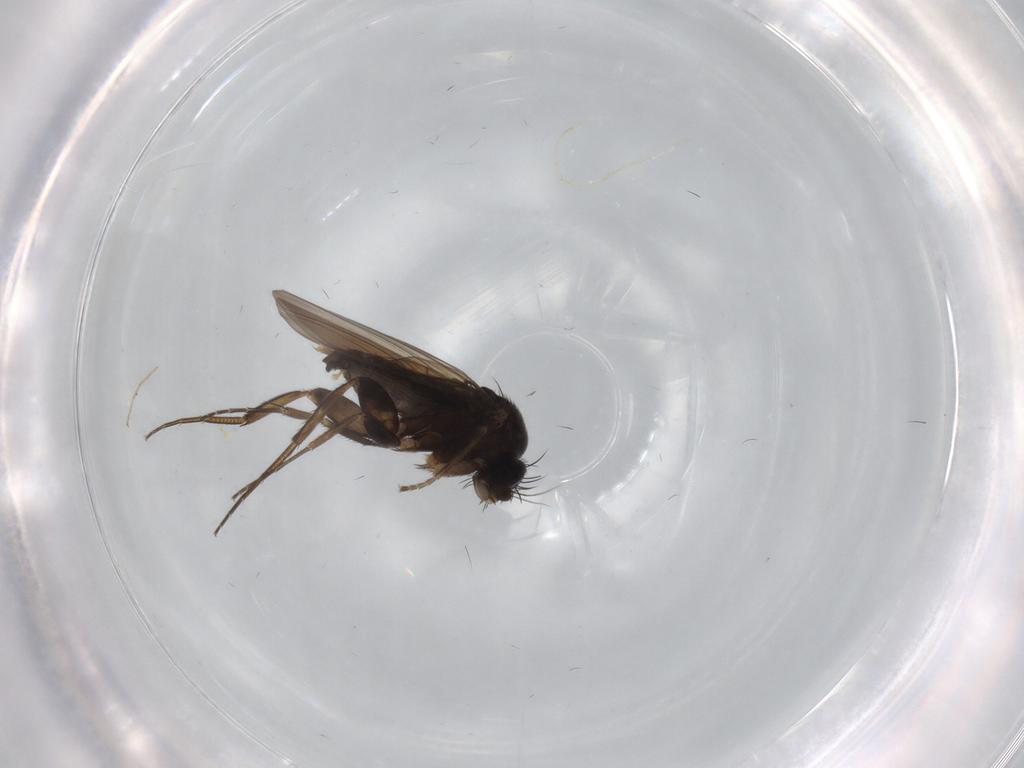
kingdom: Animalia
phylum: Arthropoda
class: Insecta
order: Diptera
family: Phoridae
